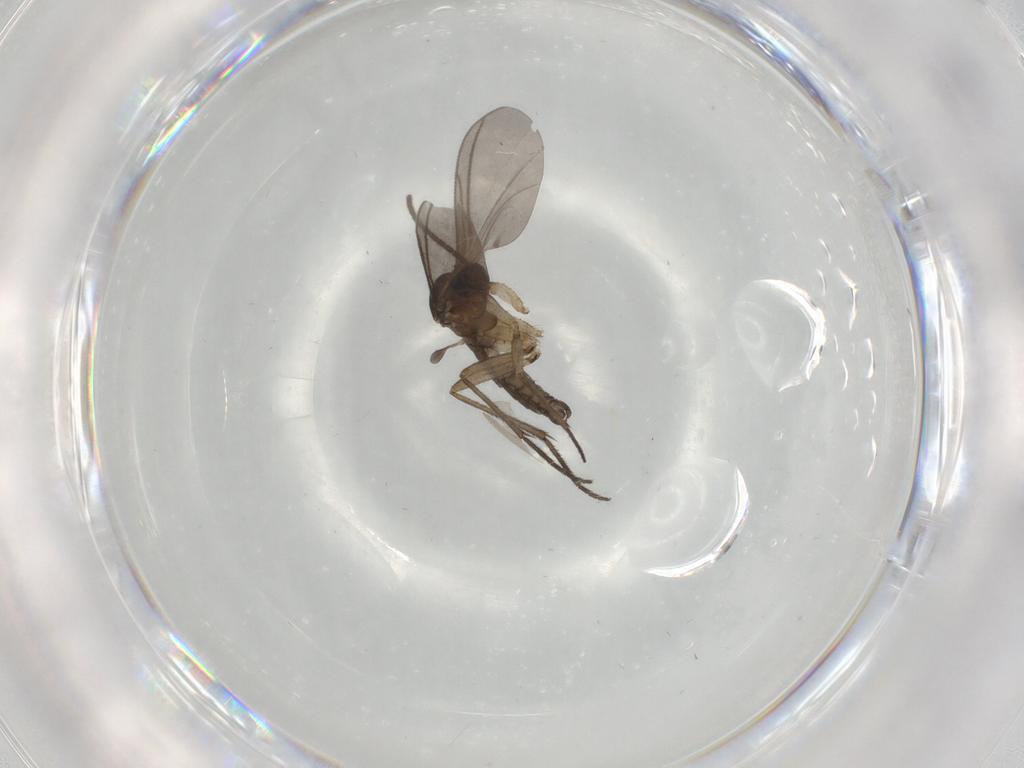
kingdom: Animalia
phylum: Arthropoda
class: Insecta
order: Diptera
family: Sciaridae
